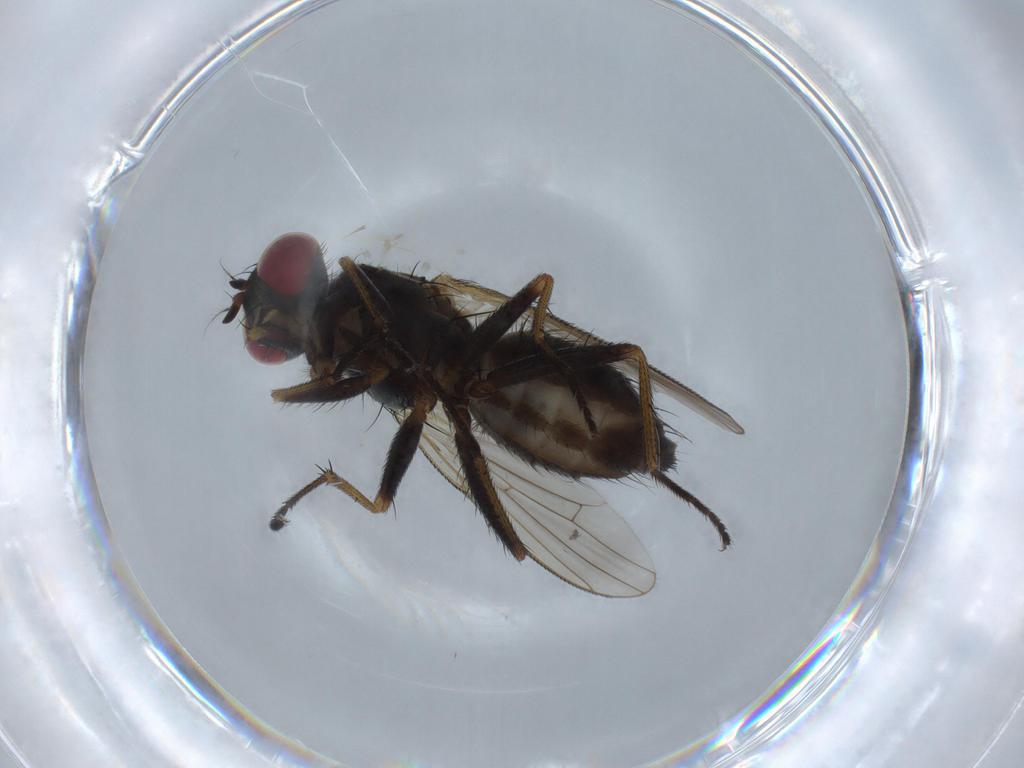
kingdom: Animalia
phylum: Arthropoda
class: Insecta
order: Diptera
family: Muscidae
